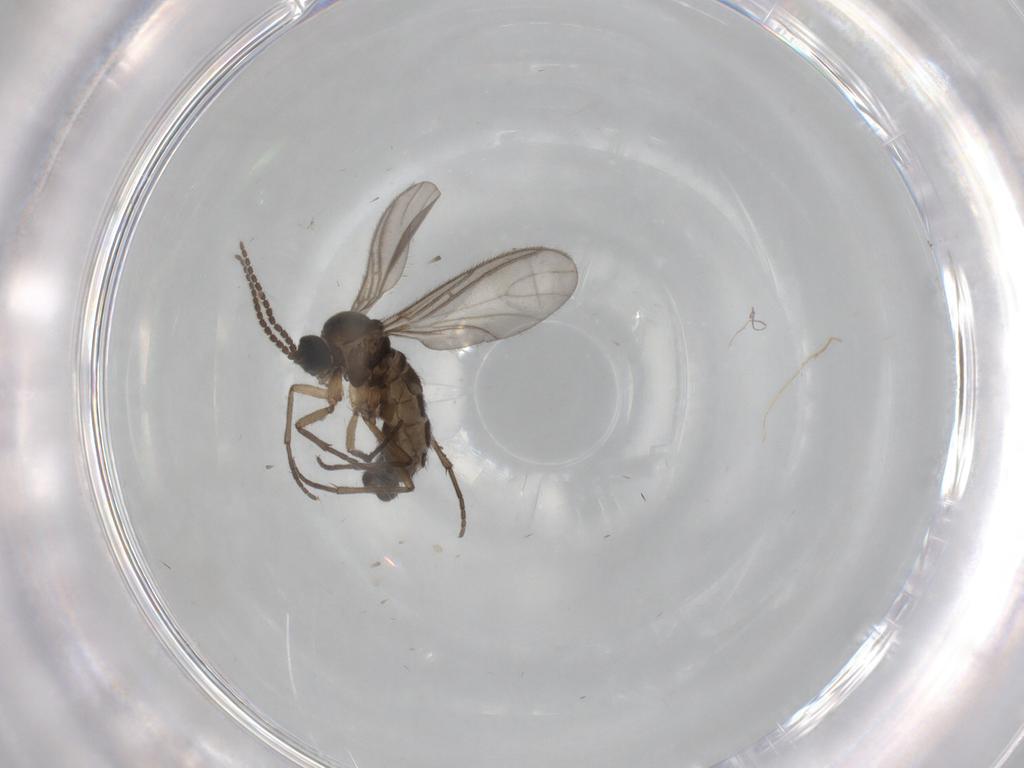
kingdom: Animalia
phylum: Arthropoda
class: Insecta
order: Diptera
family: Sciaridae
